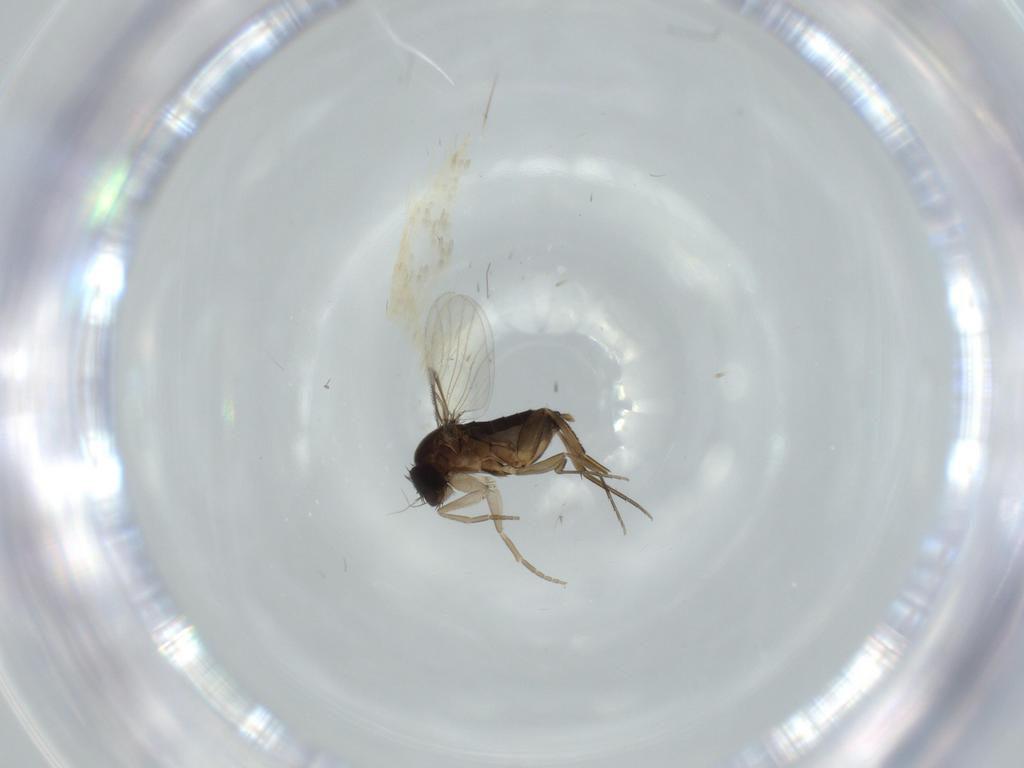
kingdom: Animalia
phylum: Arthropoda
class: Insecta
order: Diptera
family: Phoridae
